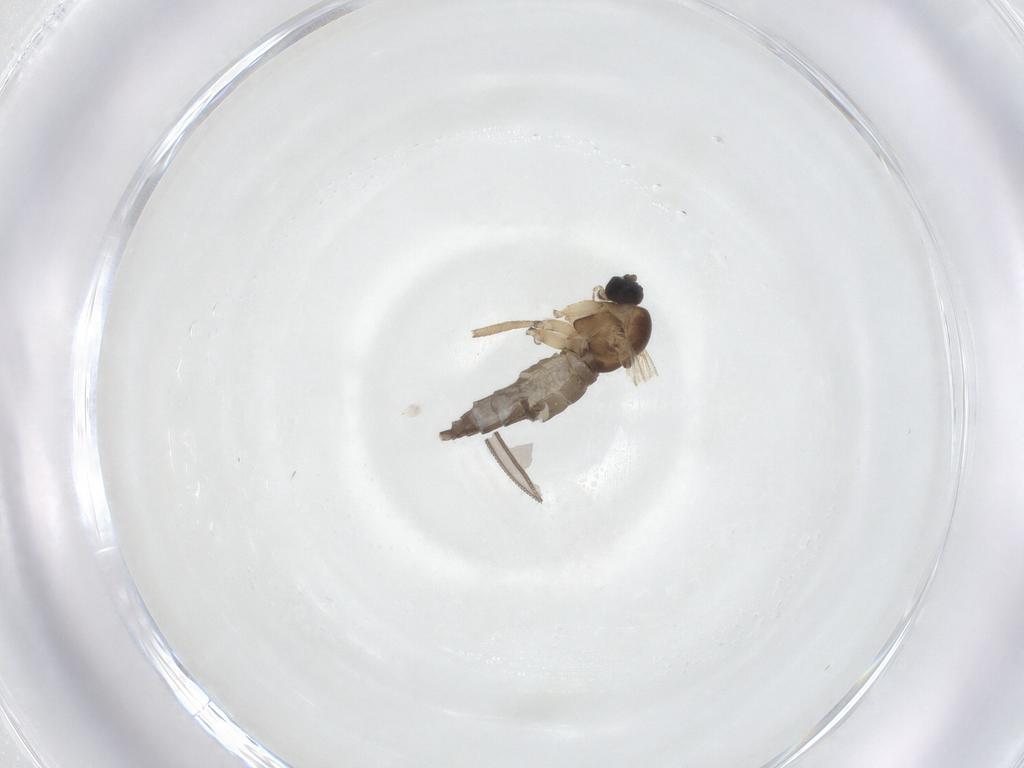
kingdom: Animalia
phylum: Arthropoda
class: Insecta
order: Diptera
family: Sciaridae
